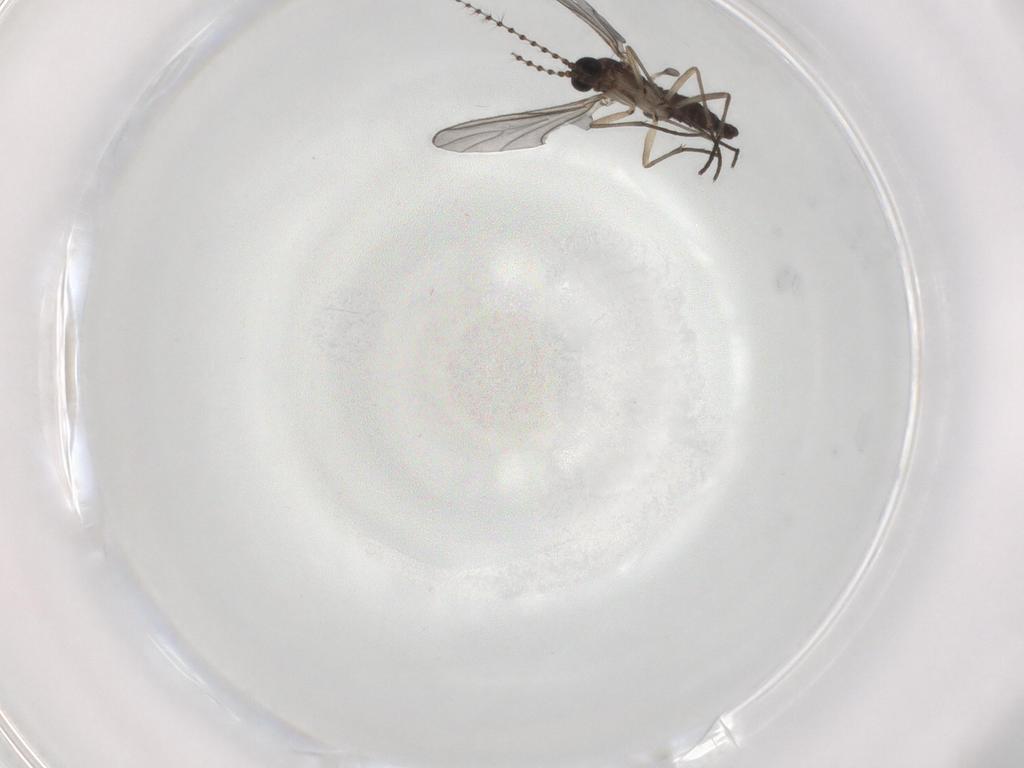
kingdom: Animalia
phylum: Arthropoda
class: Insecta
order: Diptera
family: Sciaridae
